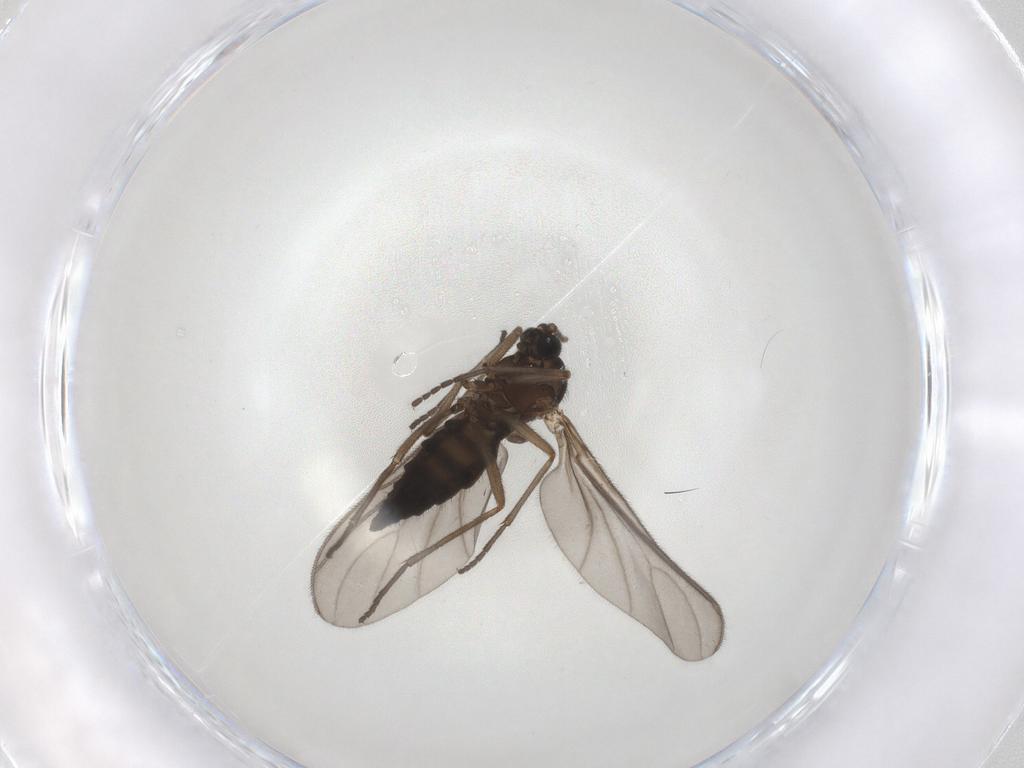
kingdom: Animalia
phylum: Arthropoda
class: Insecta
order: Diptera
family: Sciaridae
